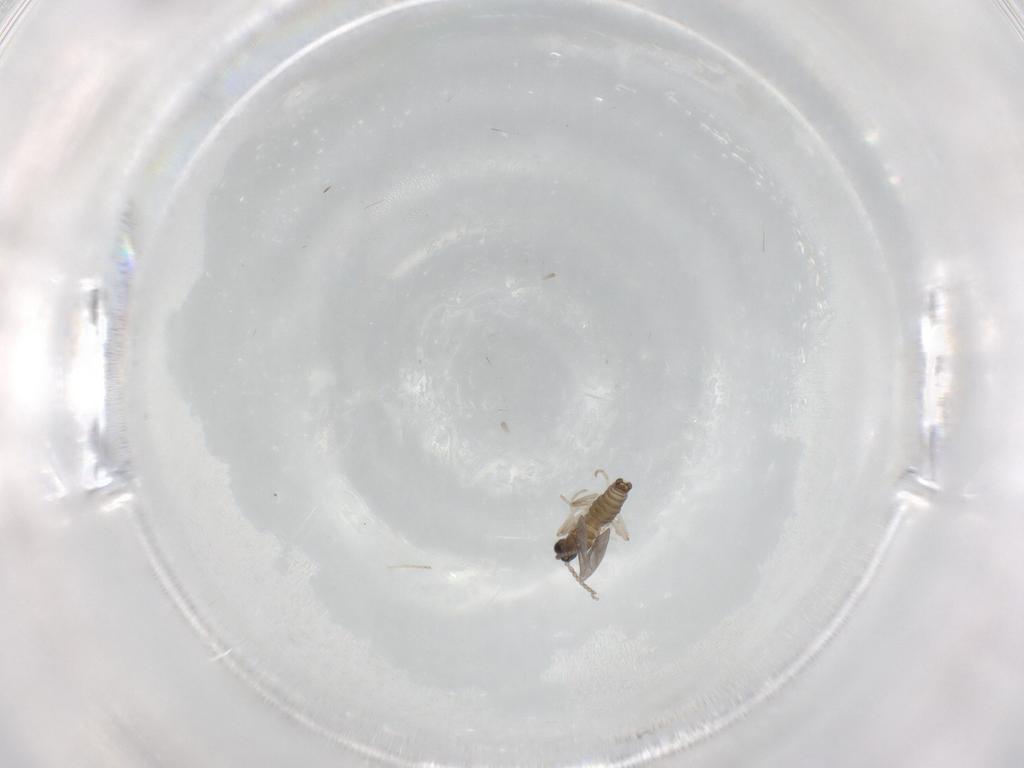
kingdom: Animalia
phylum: Arthropoda
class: Insecta
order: Diptera
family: Cecidomyiidae
